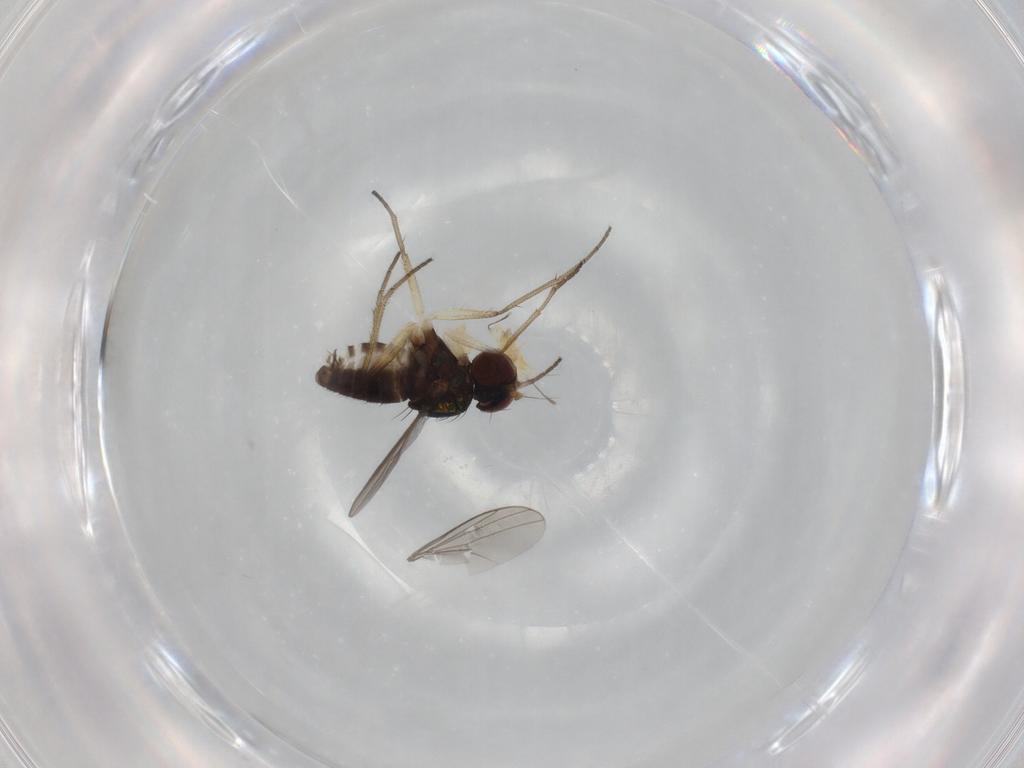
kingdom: Animalia
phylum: Arthropoda
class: Insecta
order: Diptera
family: Dolichopodidae
